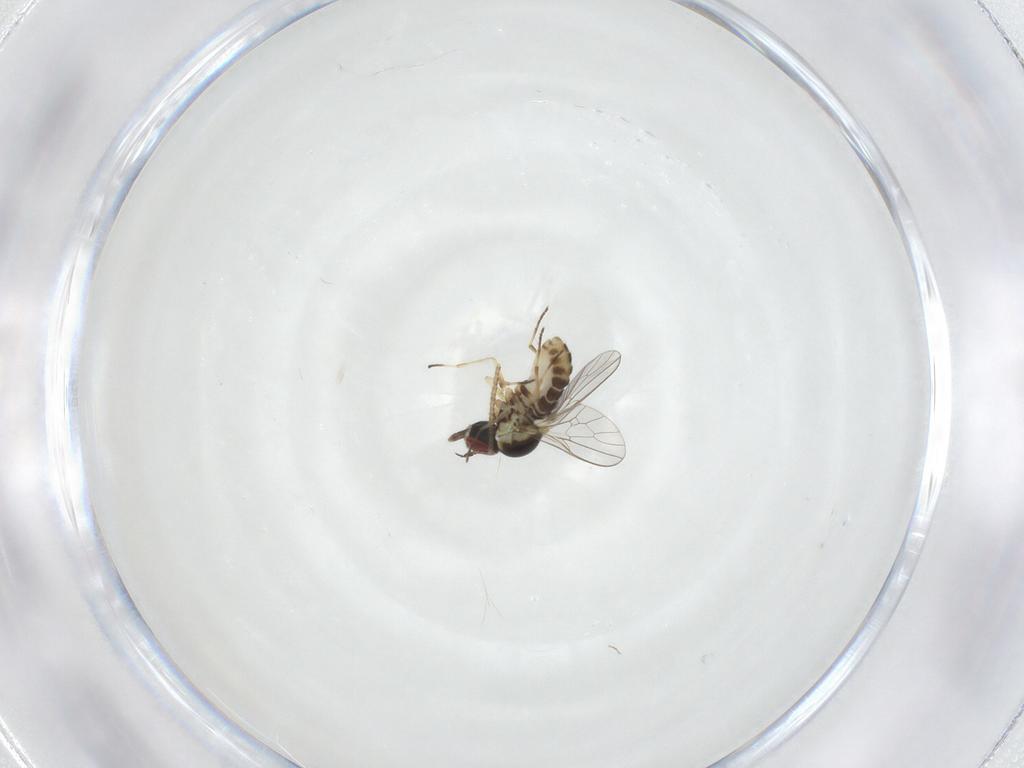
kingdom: Animalia
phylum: Arthropoda
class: Insecta
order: Diptera
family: Mythicomyiidae
